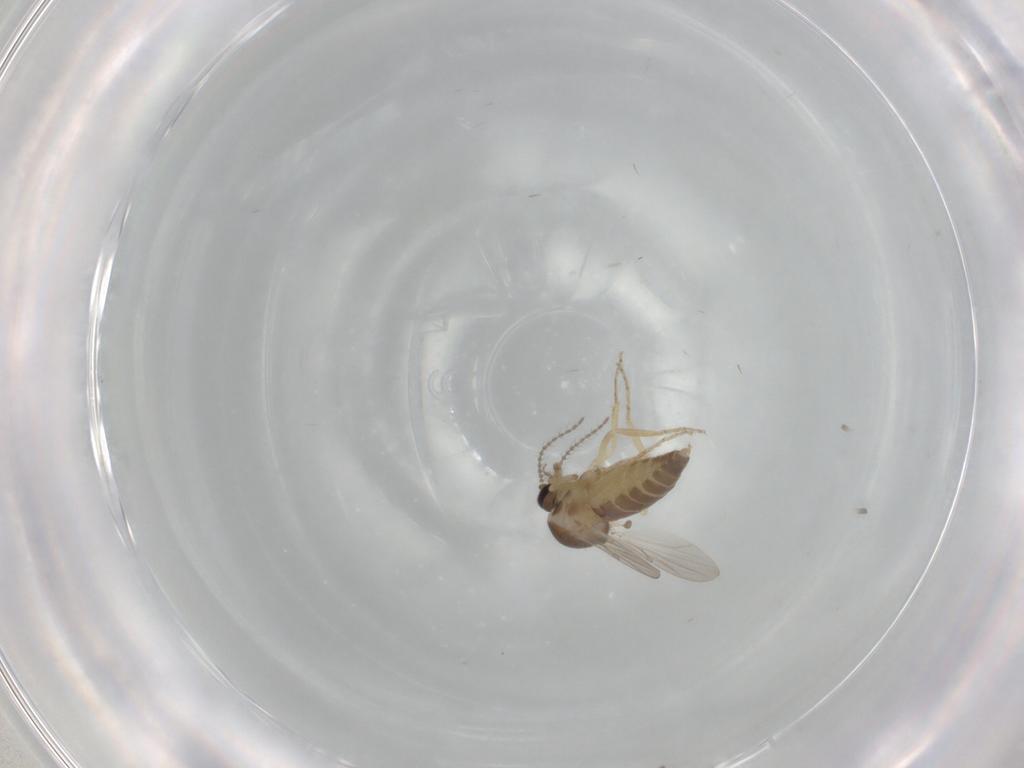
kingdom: Animalia
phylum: Arthropoda
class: Insecta
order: Diptera
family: Ceratopogonidae
